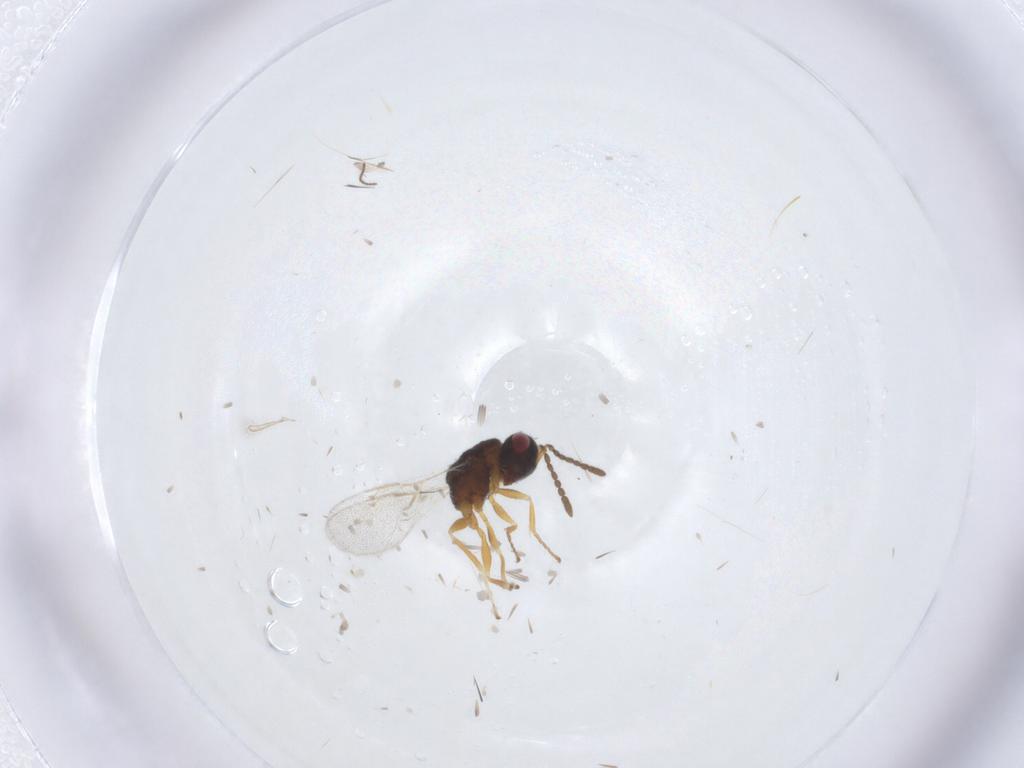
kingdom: Animalia
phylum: Arthropoda
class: Insecta
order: Hymenoptera
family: Eurytomidae
